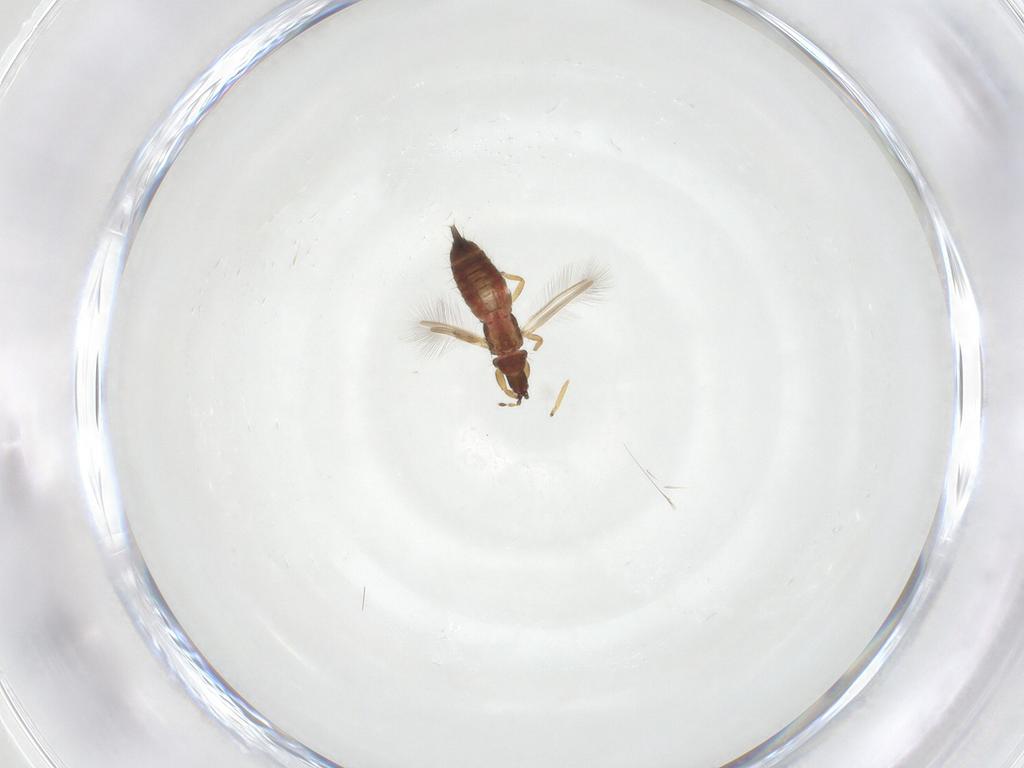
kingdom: Animalia
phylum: Arthropoda
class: Insecta
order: Thysanoptera
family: Phlaeothripidae
